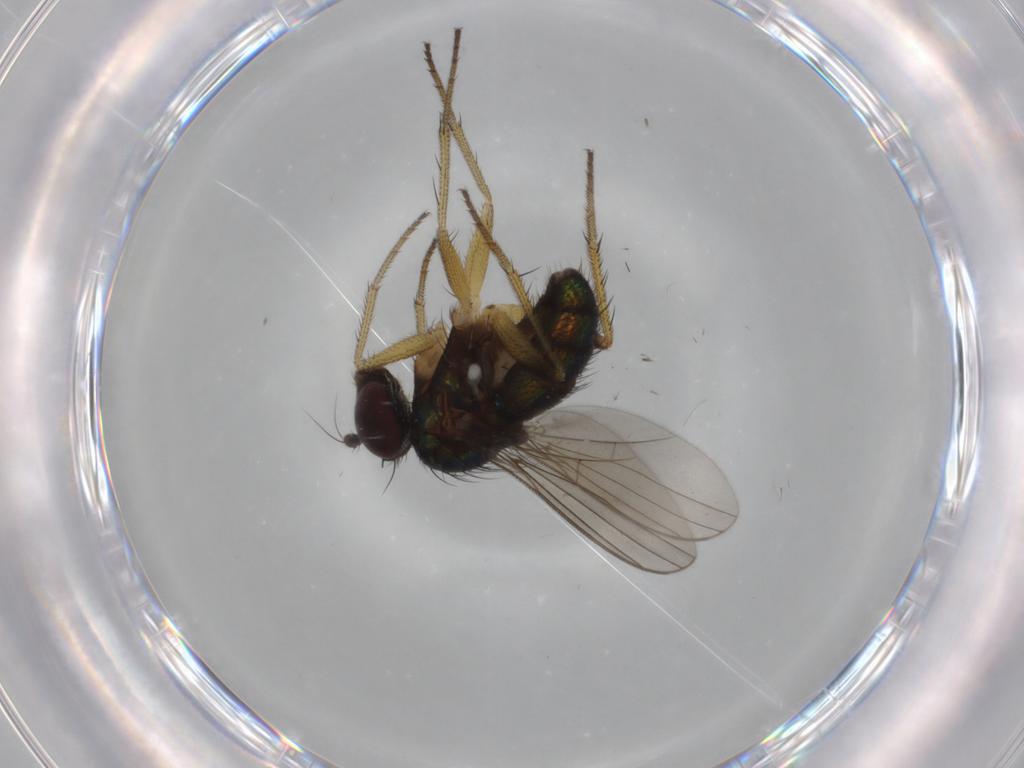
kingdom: Animalia
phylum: Arthropoda
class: Insecta
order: Diptera
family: Dolichopodidae
